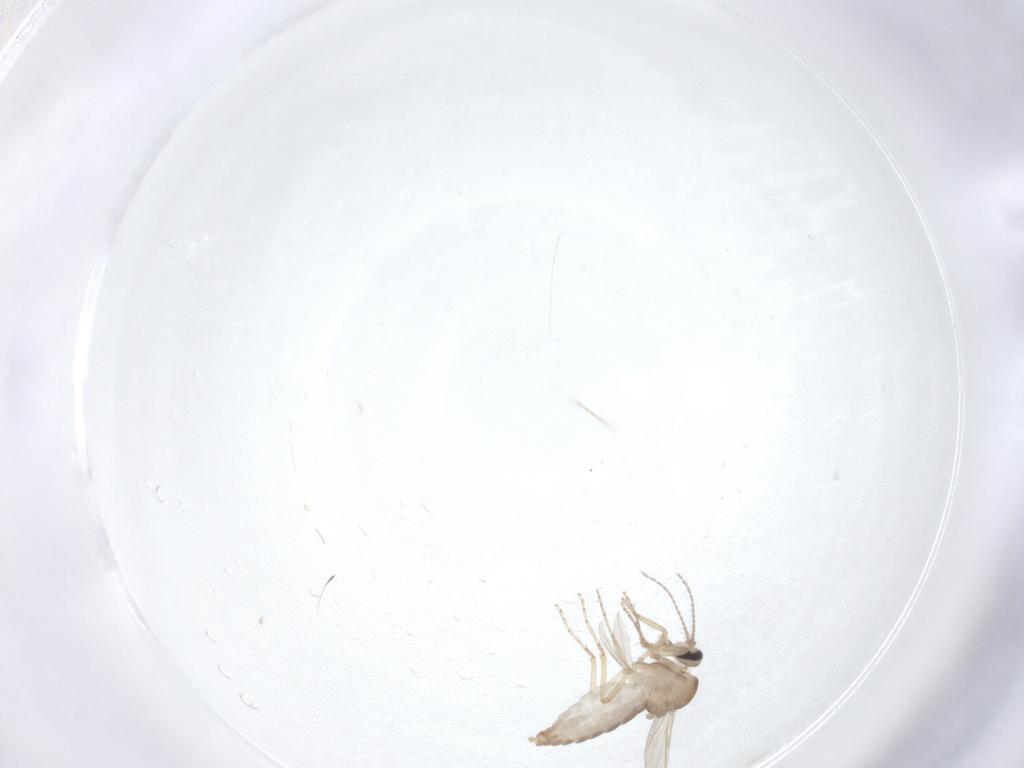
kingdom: Animalia
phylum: Arthropoda
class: Insecta
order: Diptera
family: Ceratopogonidae
